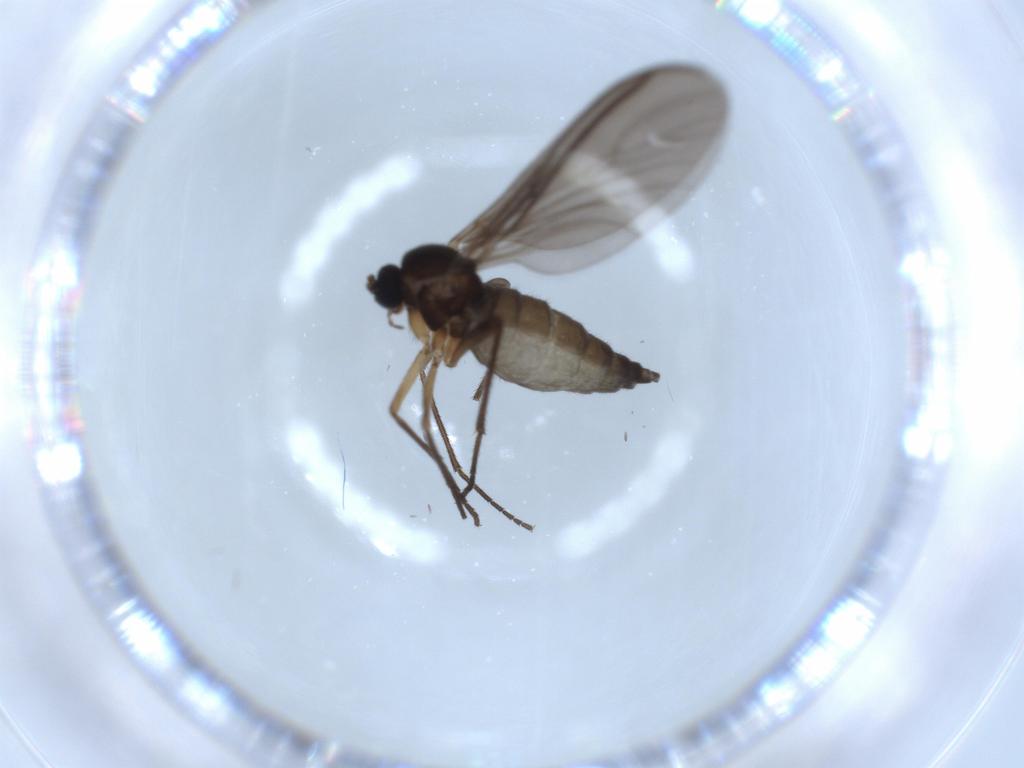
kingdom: Animalia
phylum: Arthropoda
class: Insecta
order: Diptera
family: Sciaridae
